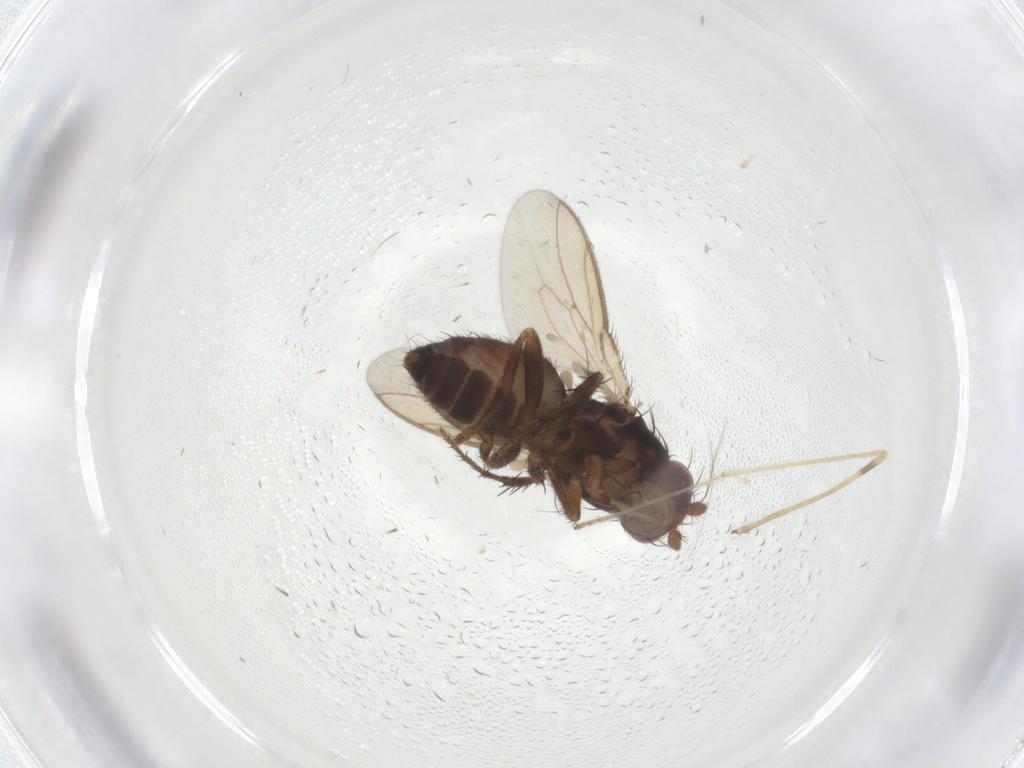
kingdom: Animalia
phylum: Arthropoda
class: Insecta
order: Diptera
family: Sphaeroceridae
